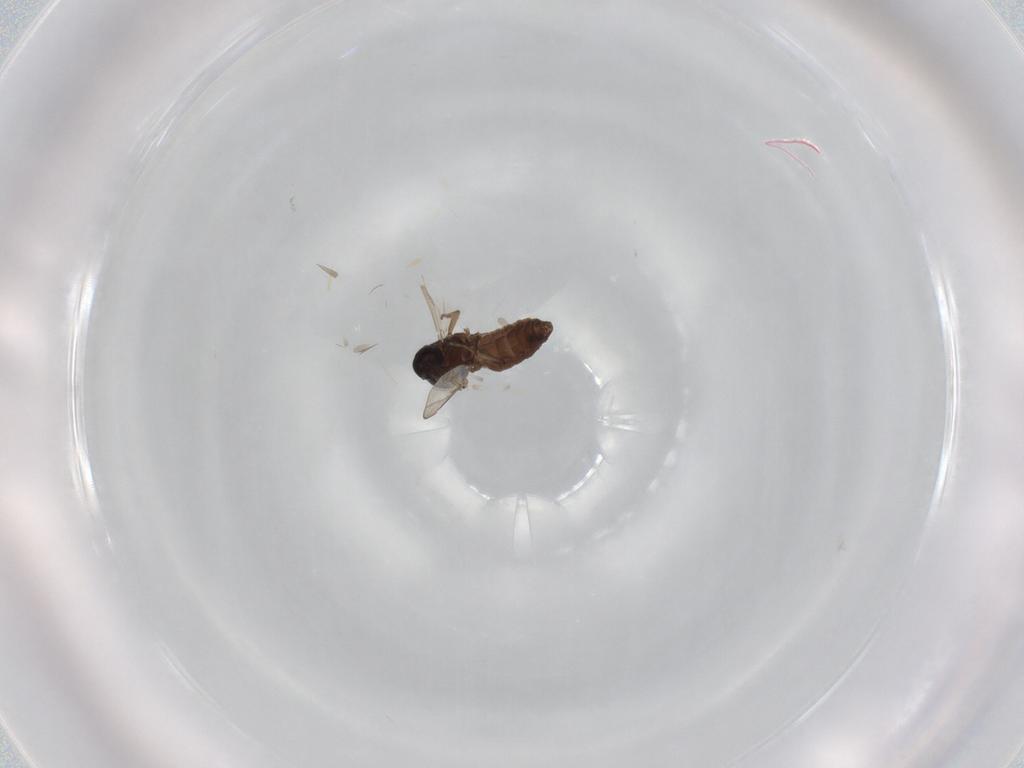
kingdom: Animalia
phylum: Arthropoda
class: Insecta
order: Diptera
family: Ceratopogonidae
